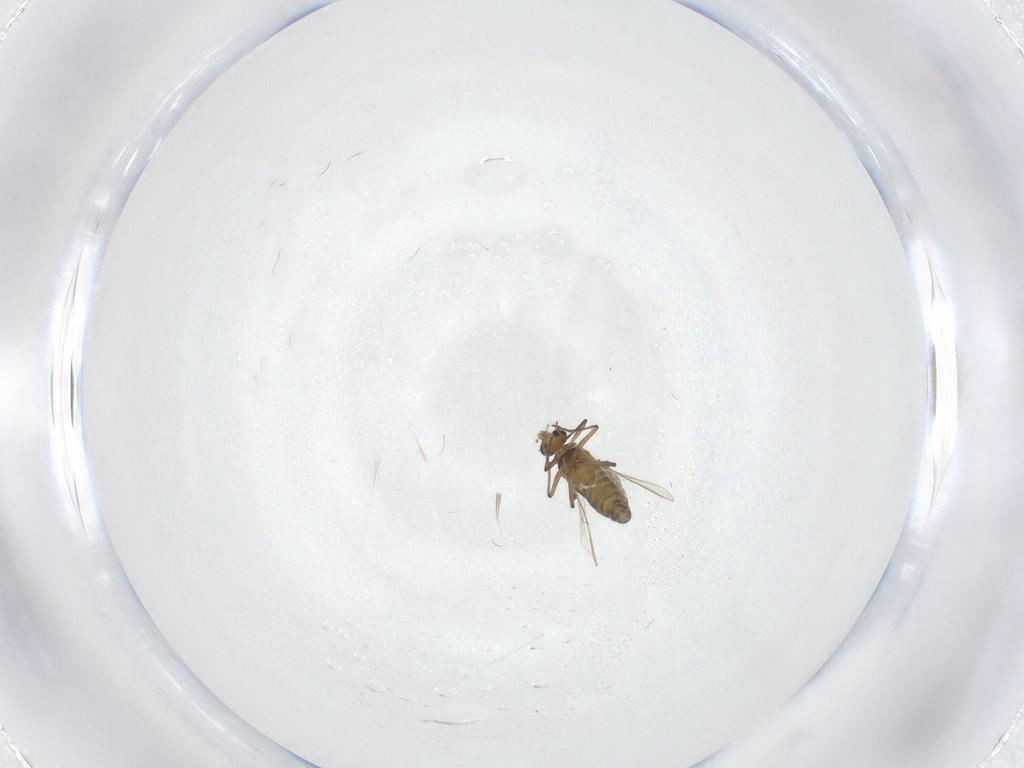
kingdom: Animalia
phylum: Arthropoda
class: Insecta
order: Diptera
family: Chironomidae
